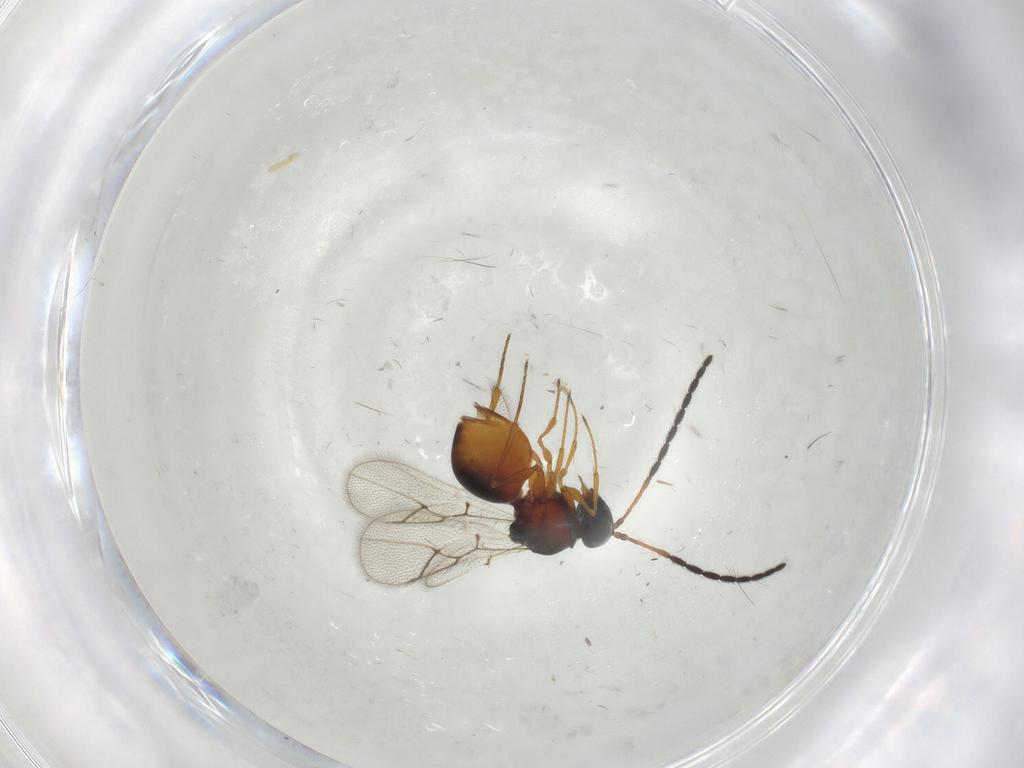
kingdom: Animalia
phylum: Arthropoda
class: Insecta
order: Hymenoptera
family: Figitidae
